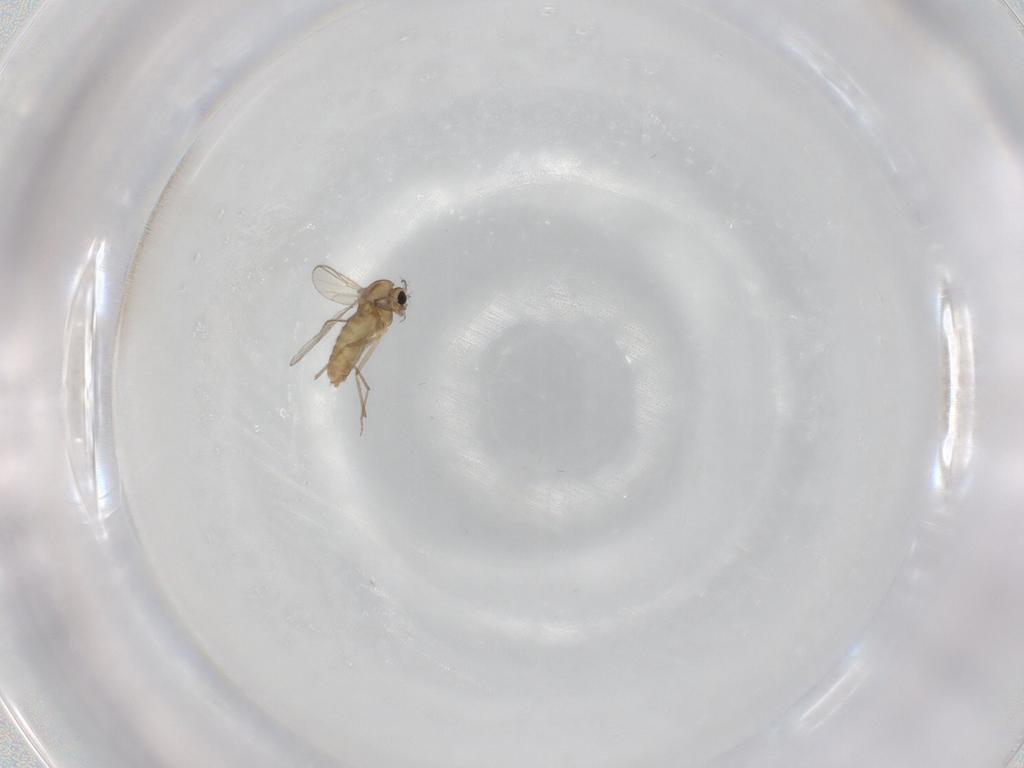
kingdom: Animalia
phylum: Arthropoda
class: Insecta
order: Diptera
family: Chironomidae
